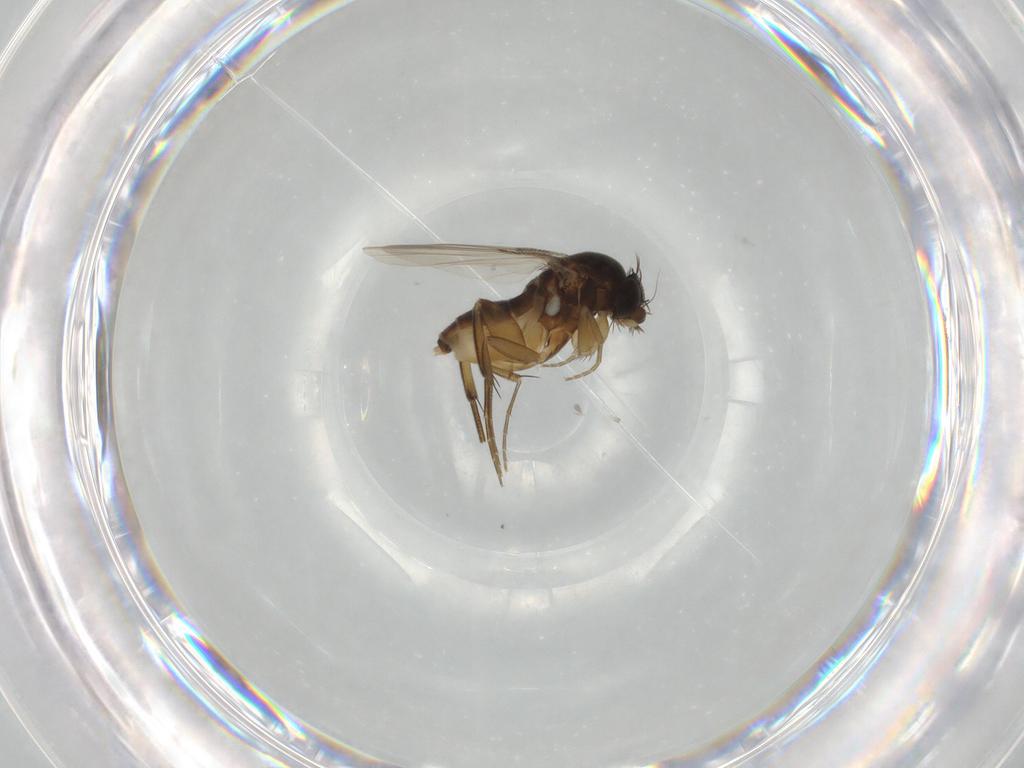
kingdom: Animalia
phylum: Arthropoda
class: Insecta
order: Diptera
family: Phoridae
